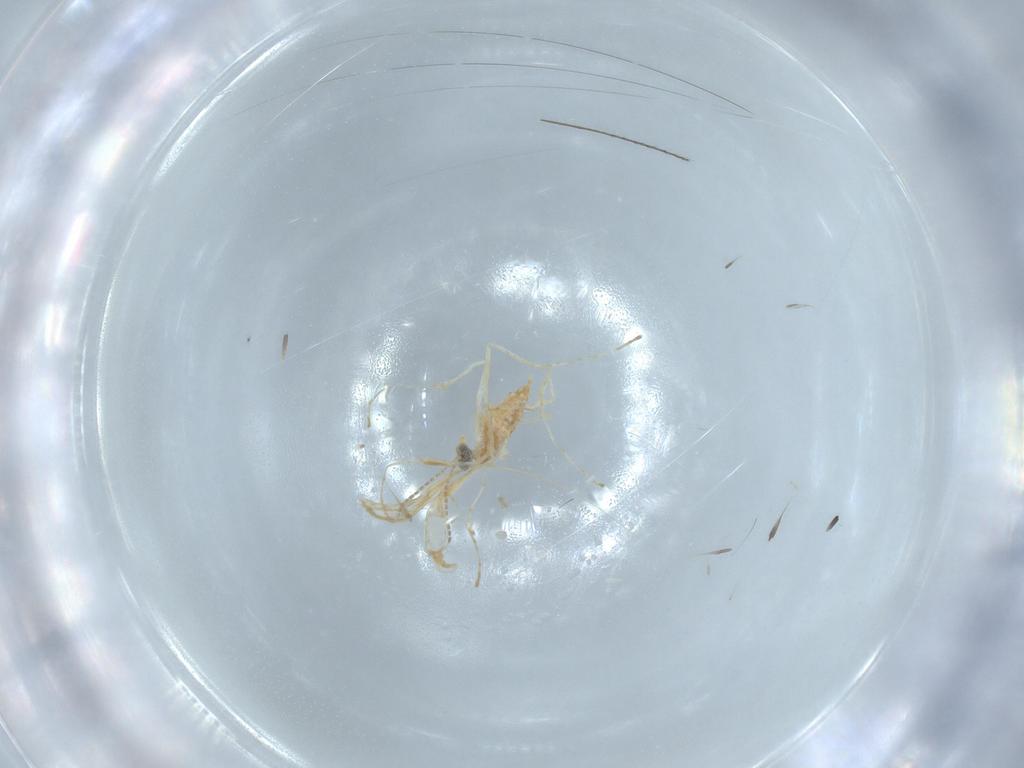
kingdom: Animalia
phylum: Arthropoda
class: Insecta
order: Diptera
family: Cecidomyiidae
